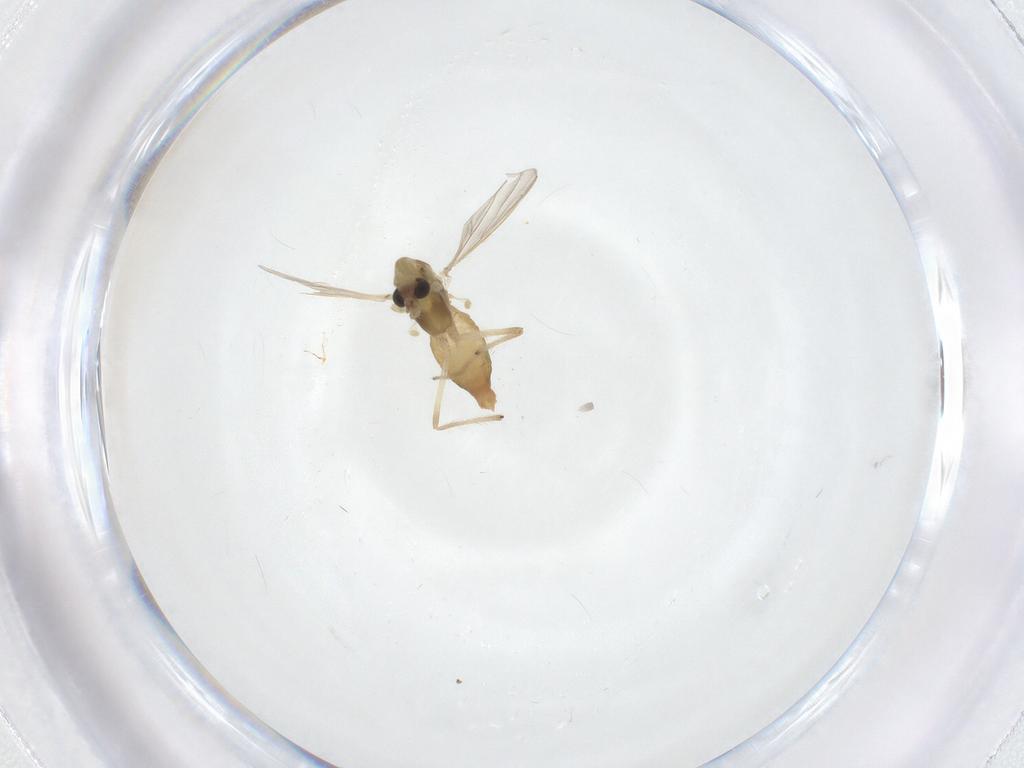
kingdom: Animalia
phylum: Arthropoda
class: Insecta
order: Diptera
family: Chironomidae
